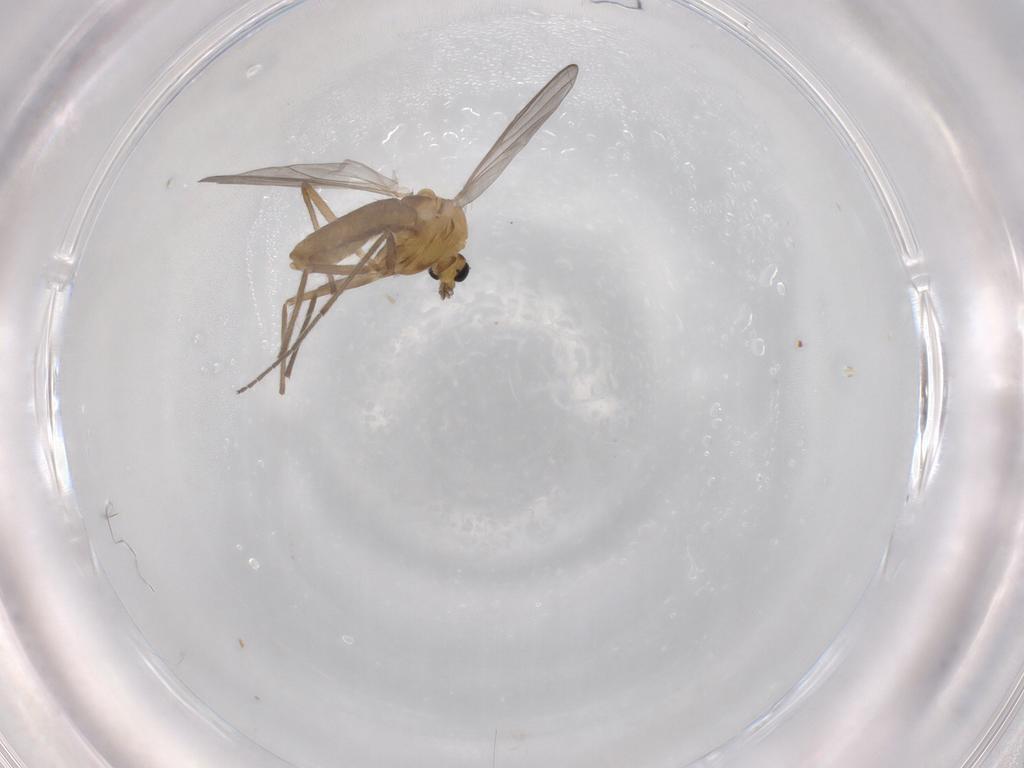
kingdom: Animalia
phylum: Arthropoda
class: Insecta
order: Diptera
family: Chironomidae
